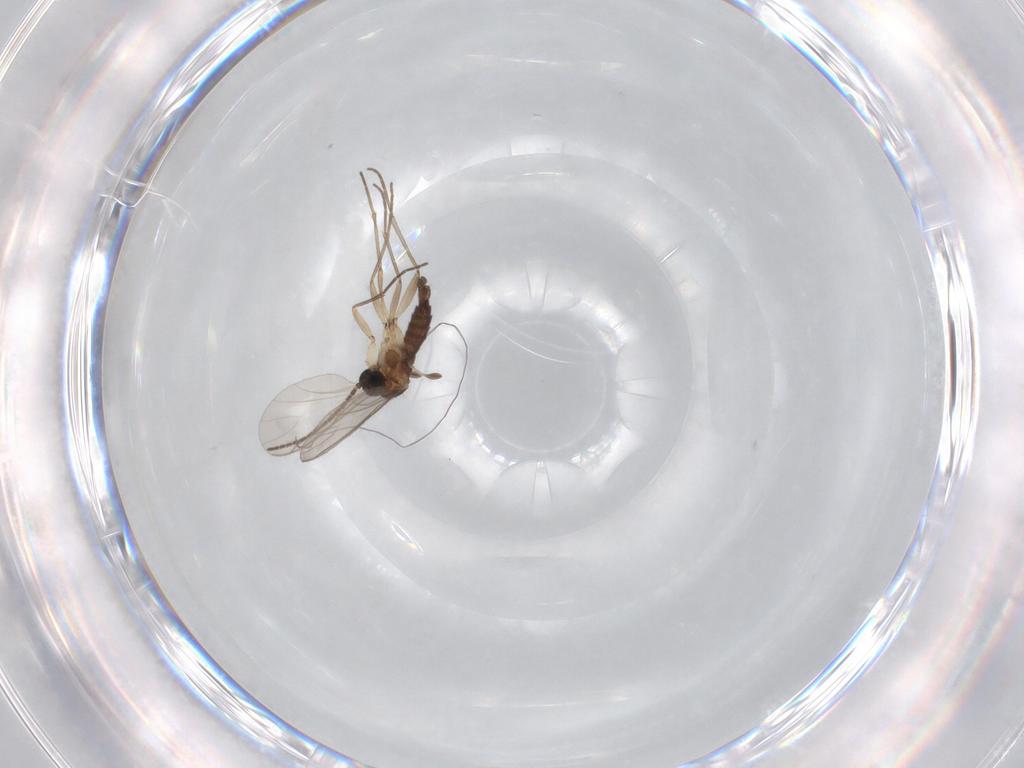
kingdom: Animalia
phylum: Arthropoda
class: Insecta
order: Diptera
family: Sciaridae
